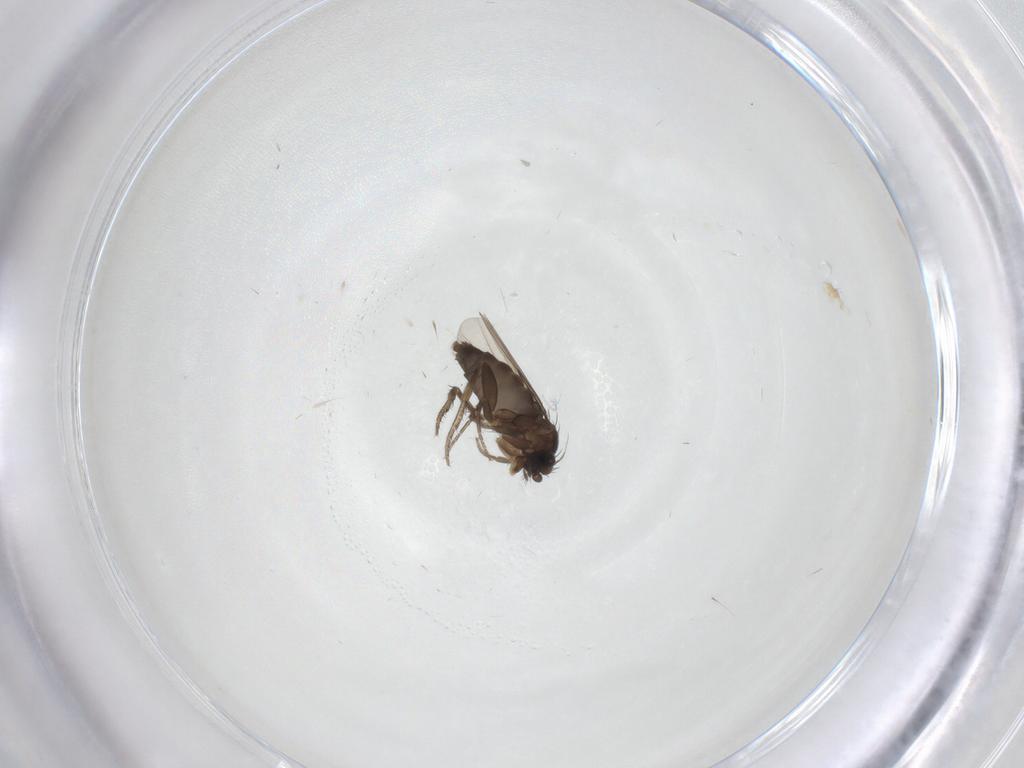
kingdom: Animalia
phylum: Arthropoda
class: Insecta
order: Diptera
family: Phoridae
